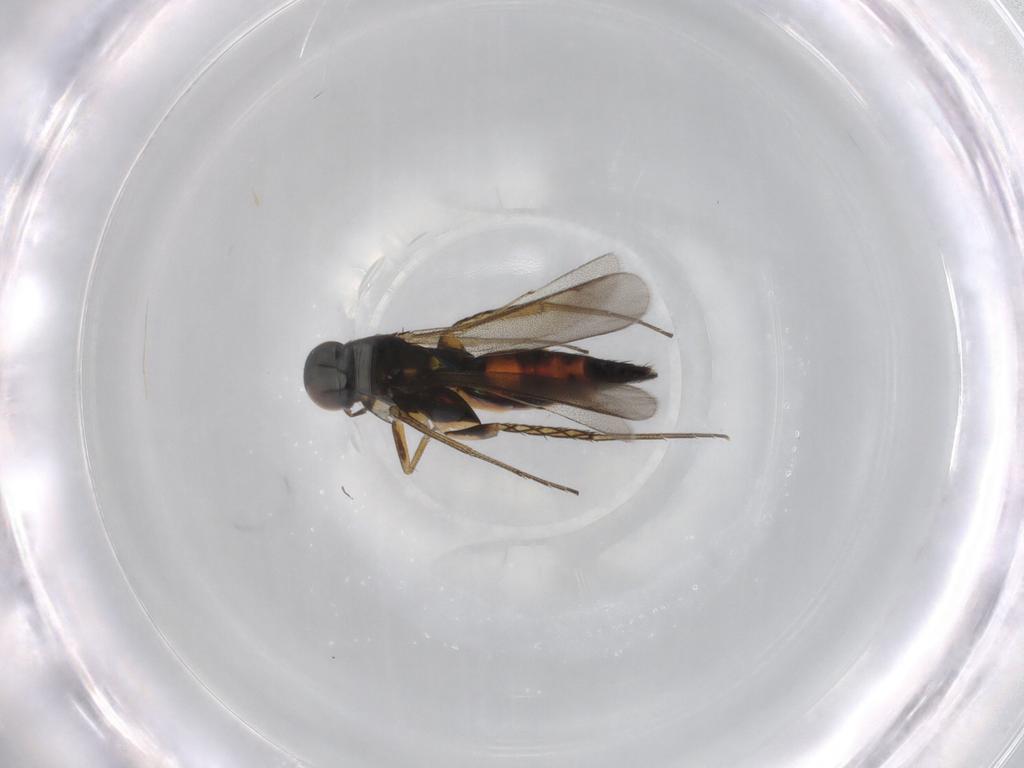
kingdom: Animalia
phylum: Arthropoda
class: Insecta
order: Hymenoptera
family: Eulophidae
